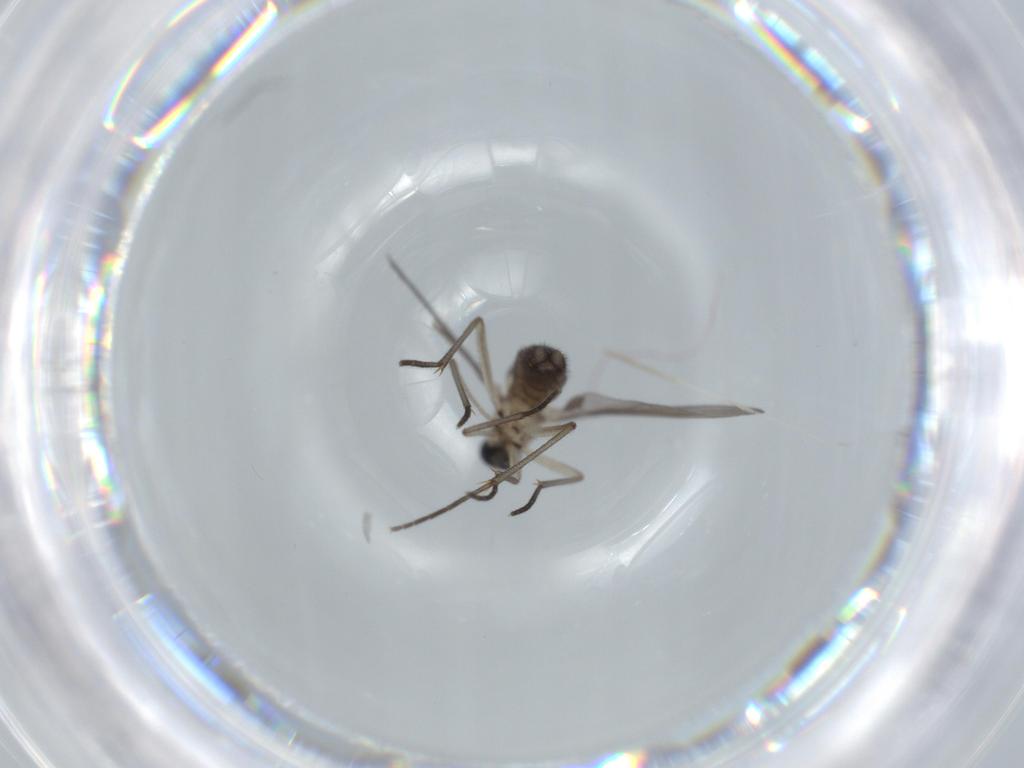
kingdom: Animalia
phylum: Arthropoda
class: Insecta
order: Diptera
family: Sciaridae
